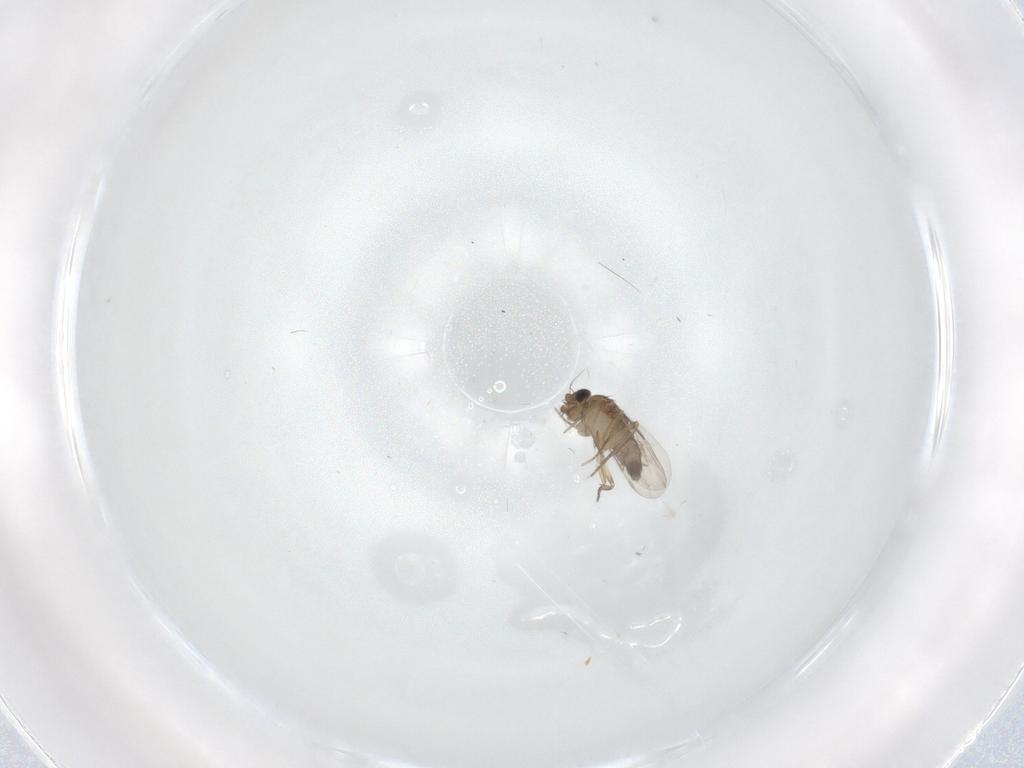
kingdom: Animalia
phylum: Arthropoda
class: Insecta
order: Diptera
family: Phoridae
